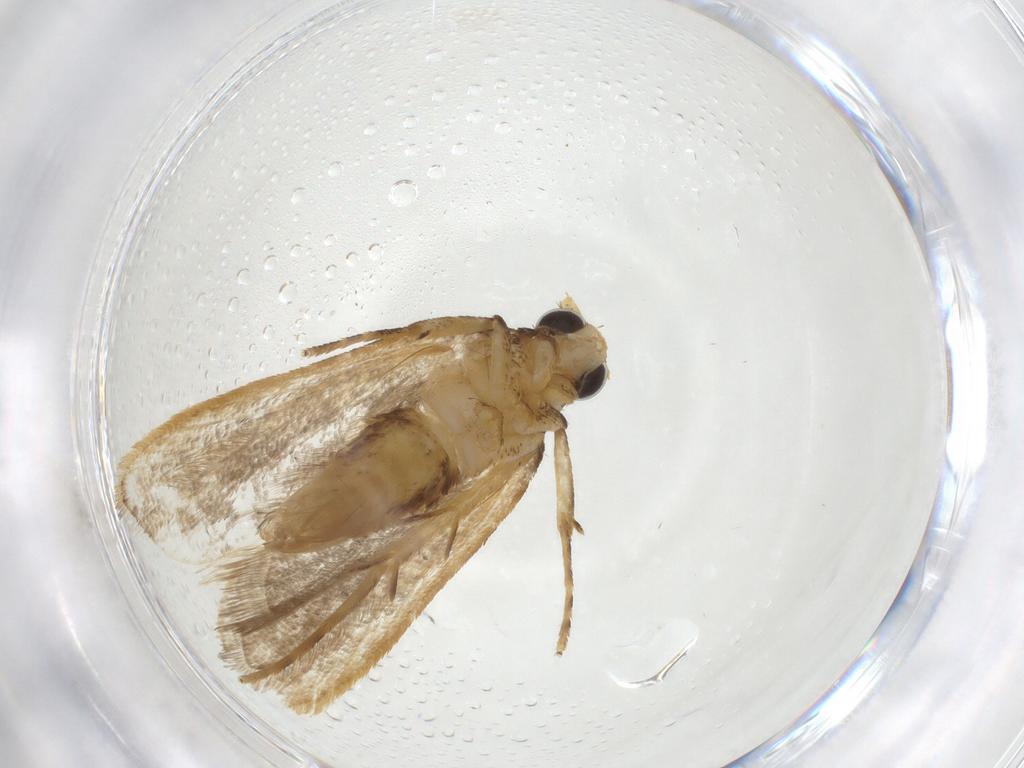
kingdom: Animalia
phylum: Arthropoda
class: Insecta
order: Lepidoptera
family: Lecithoceridae
